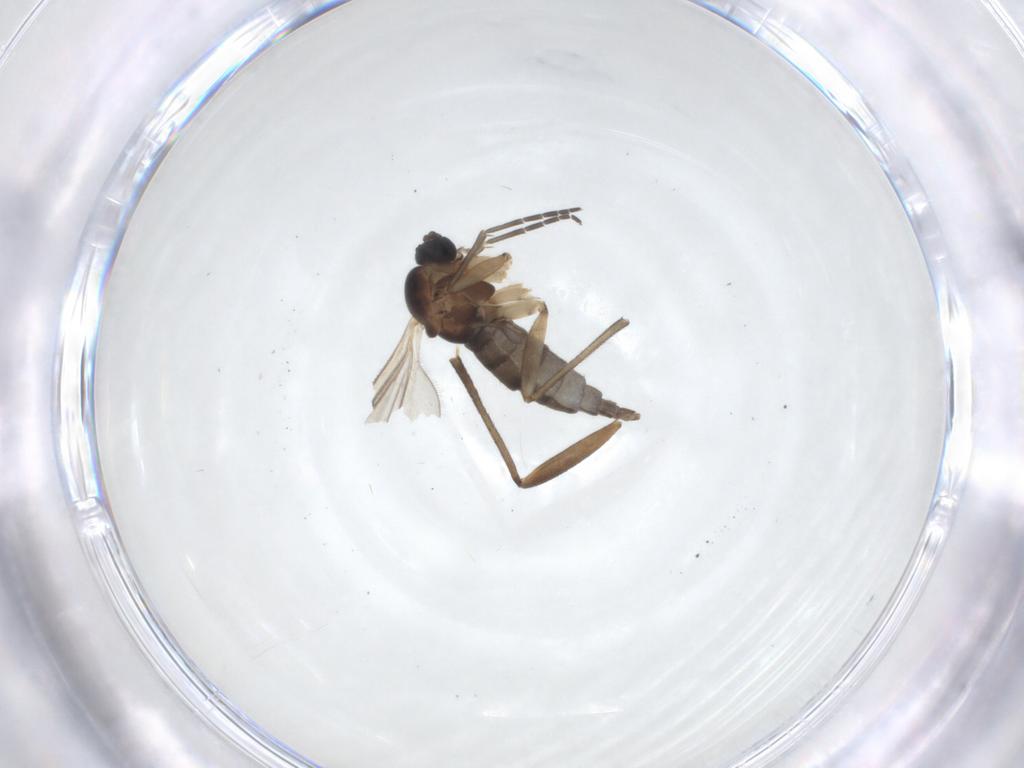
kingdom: Animalia
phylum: Arthropoda
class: Insecta
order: Diptera
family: Sciaridae
